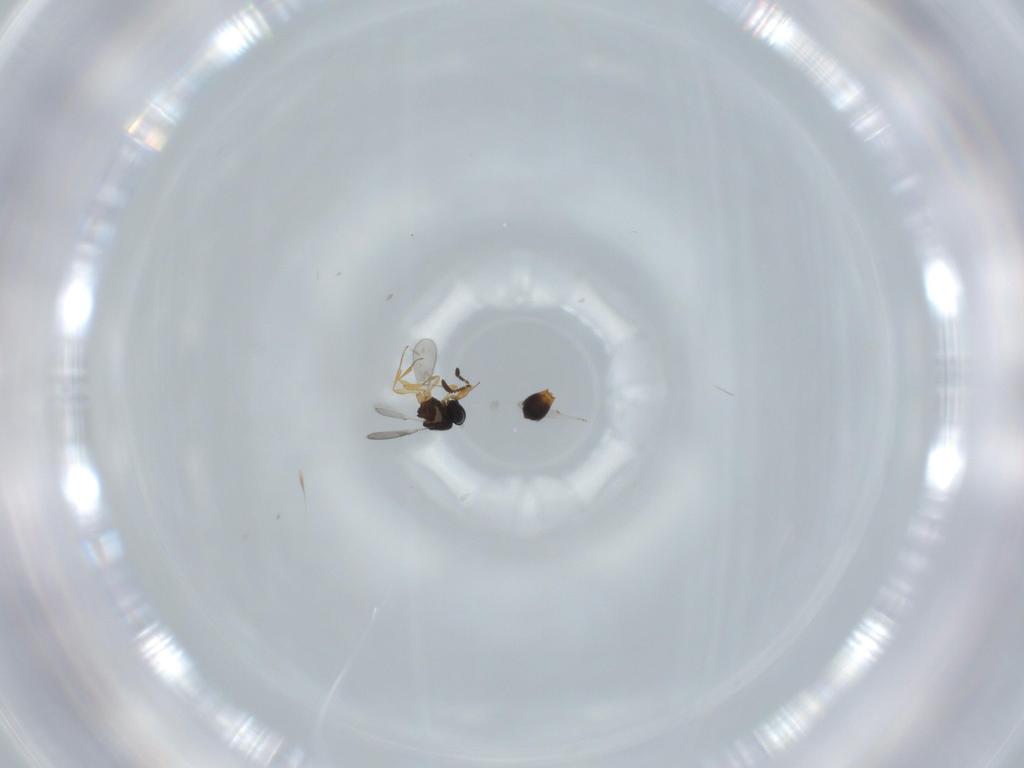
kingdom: Animalia
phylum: Arthropoda
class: Insecta
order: Hymenoptera
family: Scelionidae
